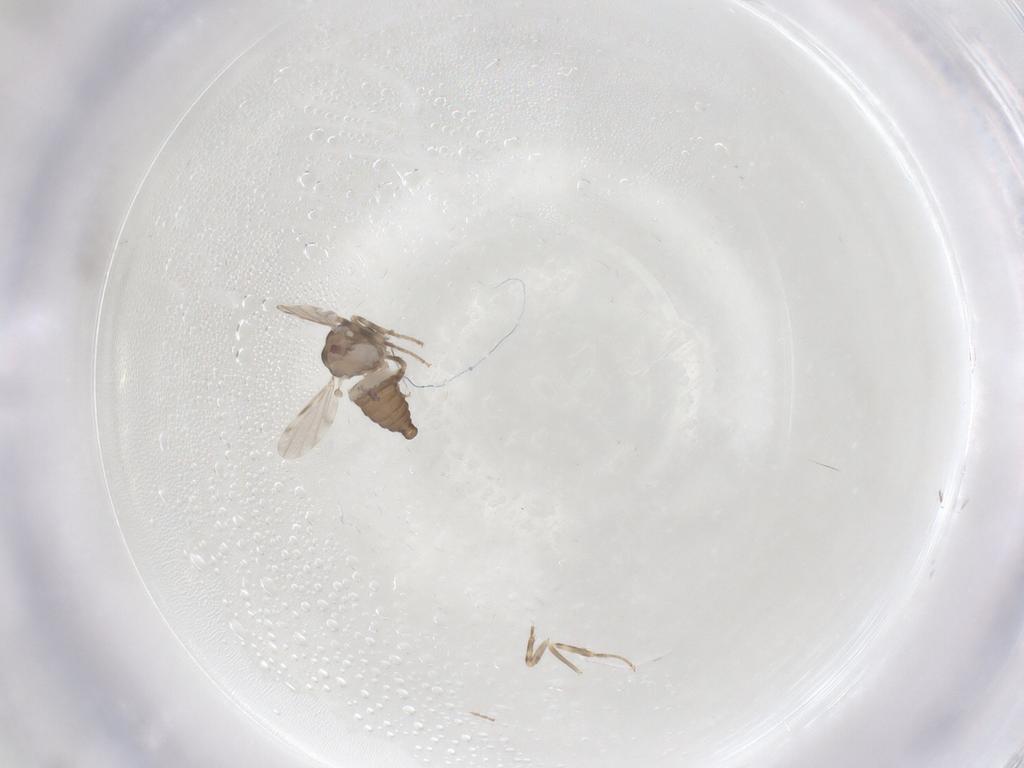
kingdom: Animalia
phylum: Arthropoda
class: Insecta
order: Diptera
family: Ceratopogonidae
